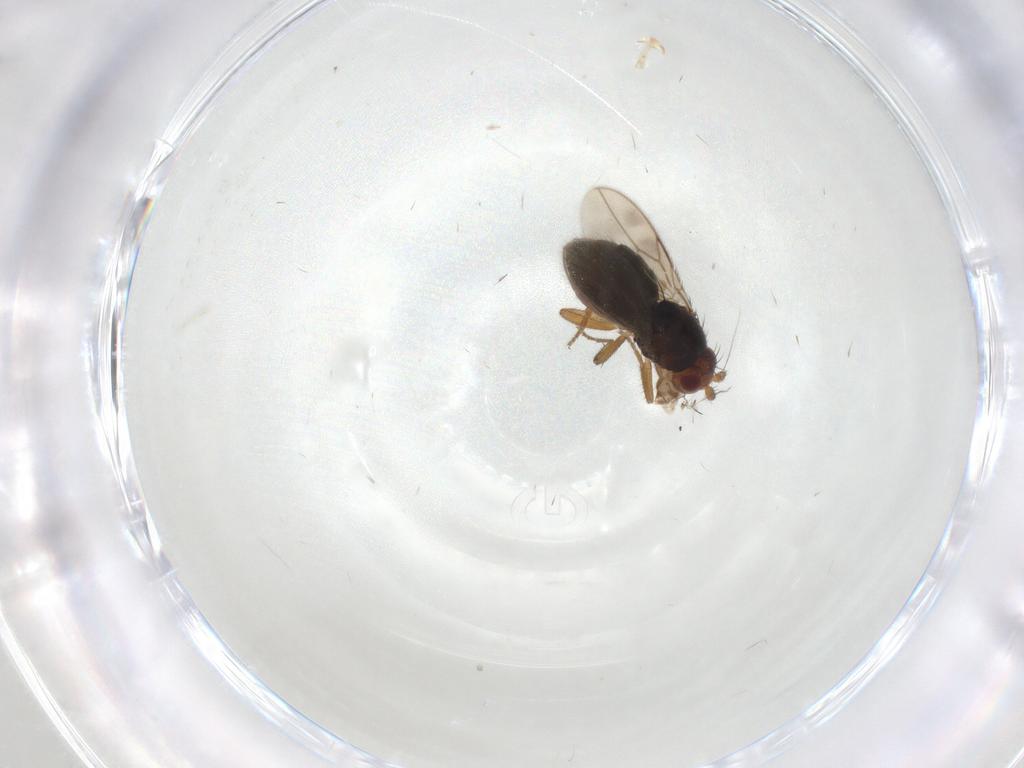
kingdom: Animalia
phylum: Arthropoda
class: Insecta
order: Diptera
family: Sphaeroceridae
